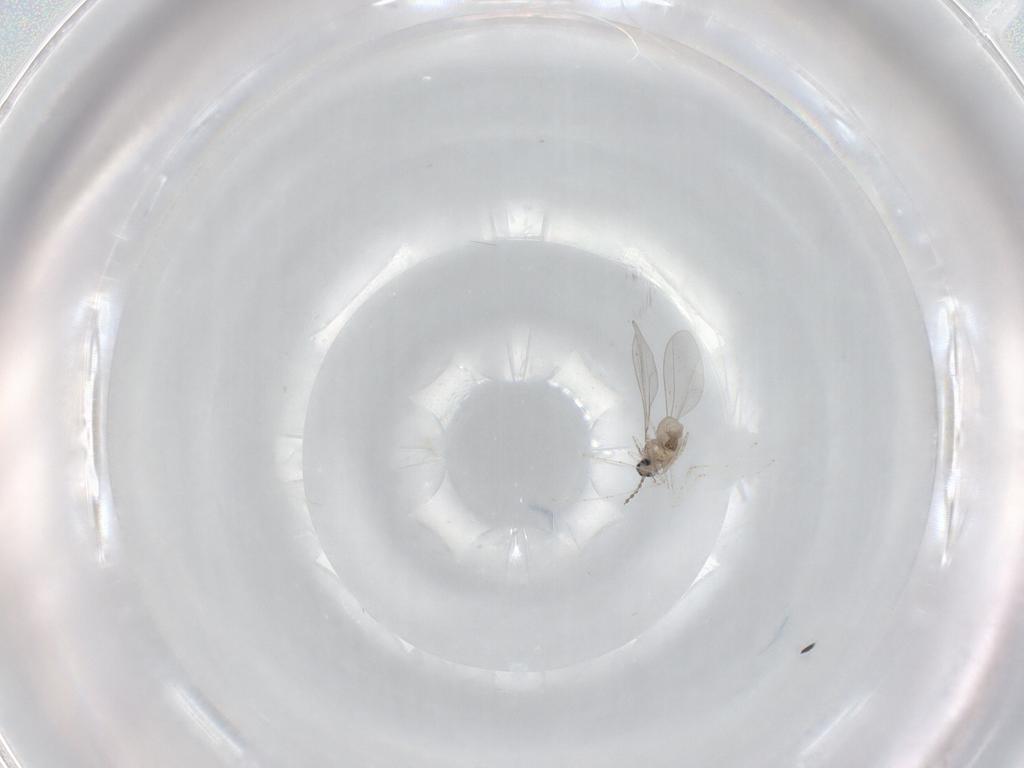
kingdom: Animalia
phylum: Arthropoda
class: Insecta
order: Diptera
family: Cecidomyiidae
